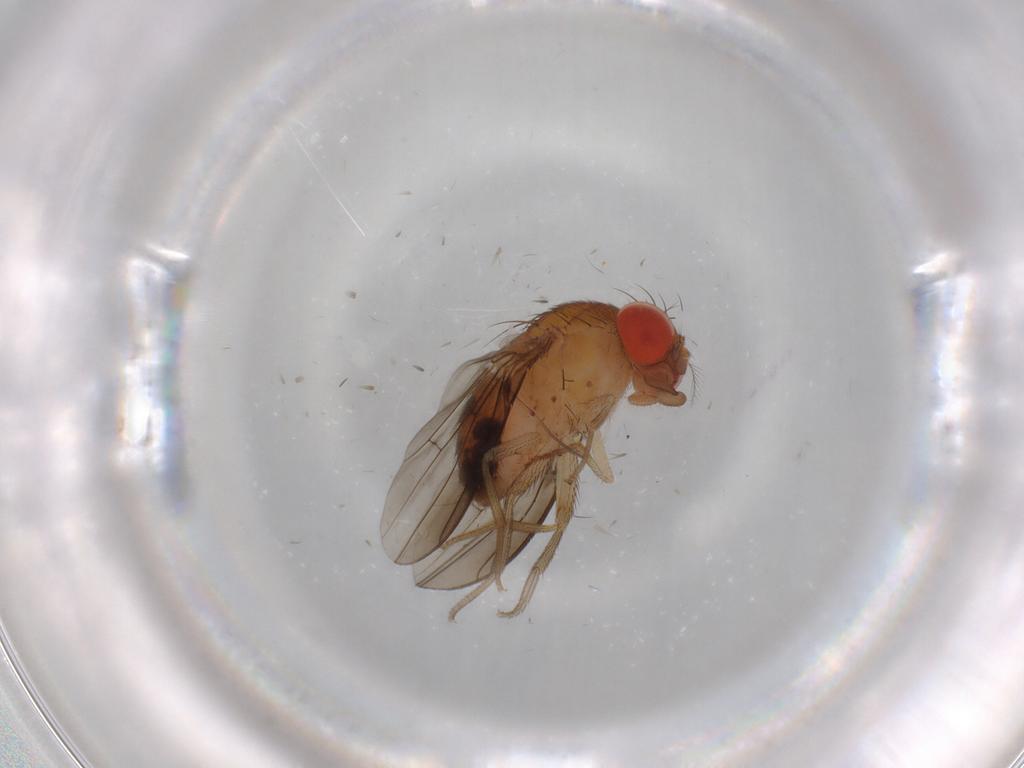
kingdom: Animalia
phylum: Arthropoda
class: Insecta
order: Diptera
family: Drosophilidae
